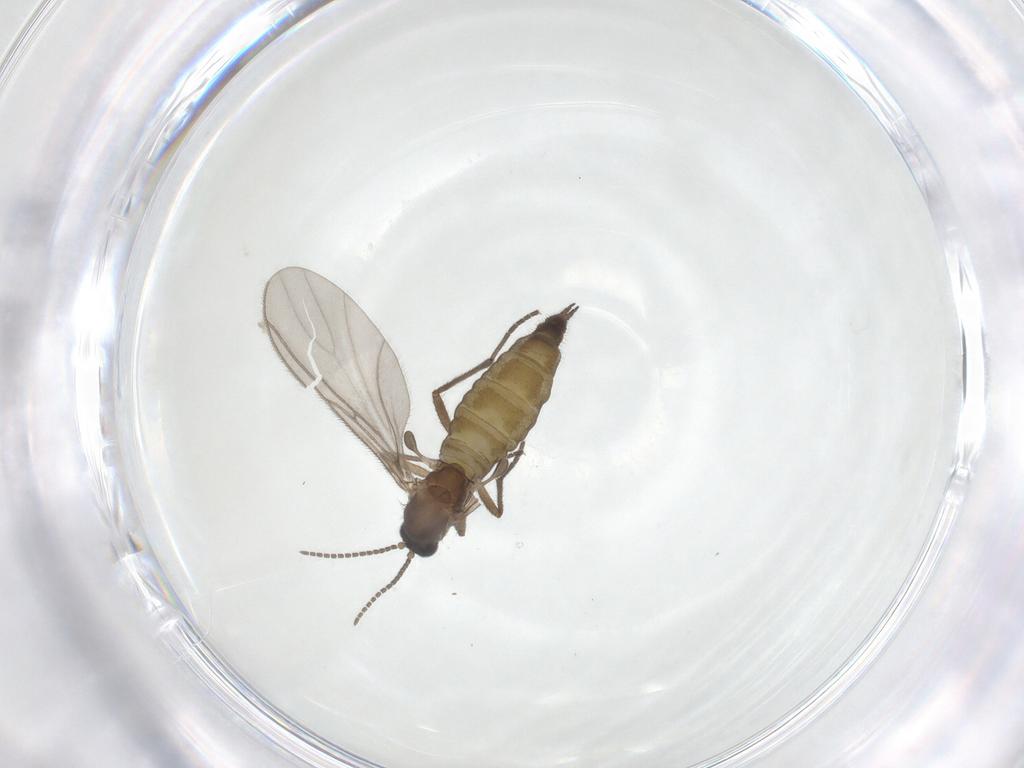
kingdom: Animalia
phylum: Arthropoda
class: Insecta
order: Diptera
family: Sciaridae
